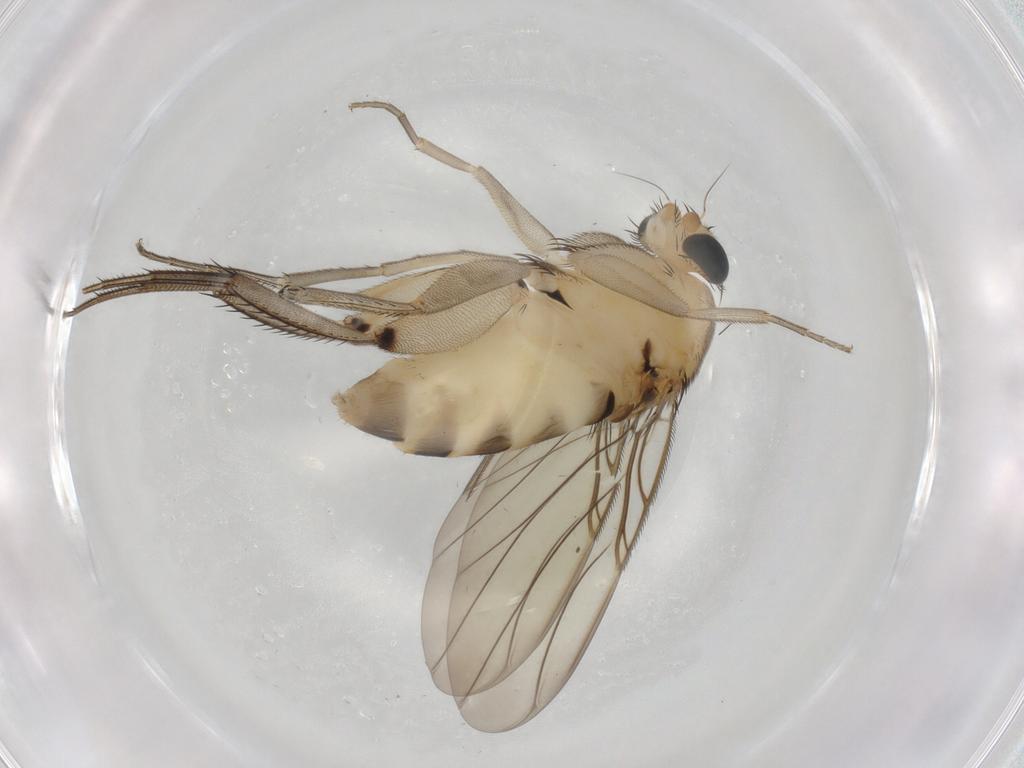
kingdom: Animalia
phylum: Arthropoda
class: Insecta
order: Diptera
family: Phoridae
